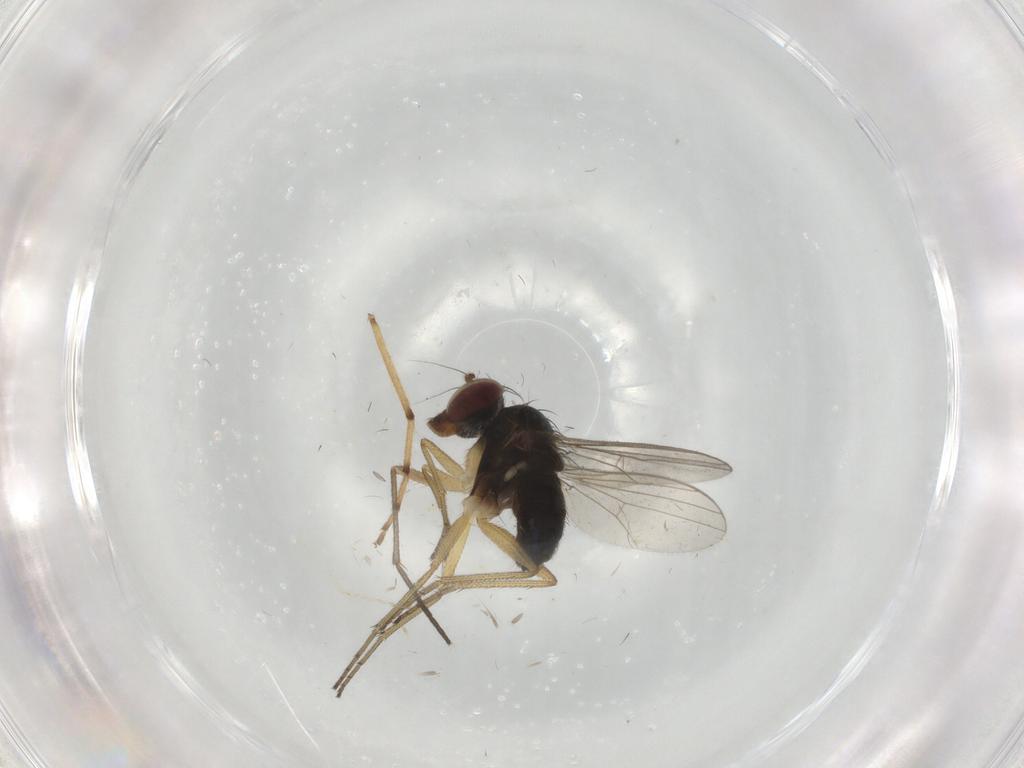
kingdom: Animalia
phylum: Arthropoda
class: Insecta
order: Diptera
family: Dolichopodidae
